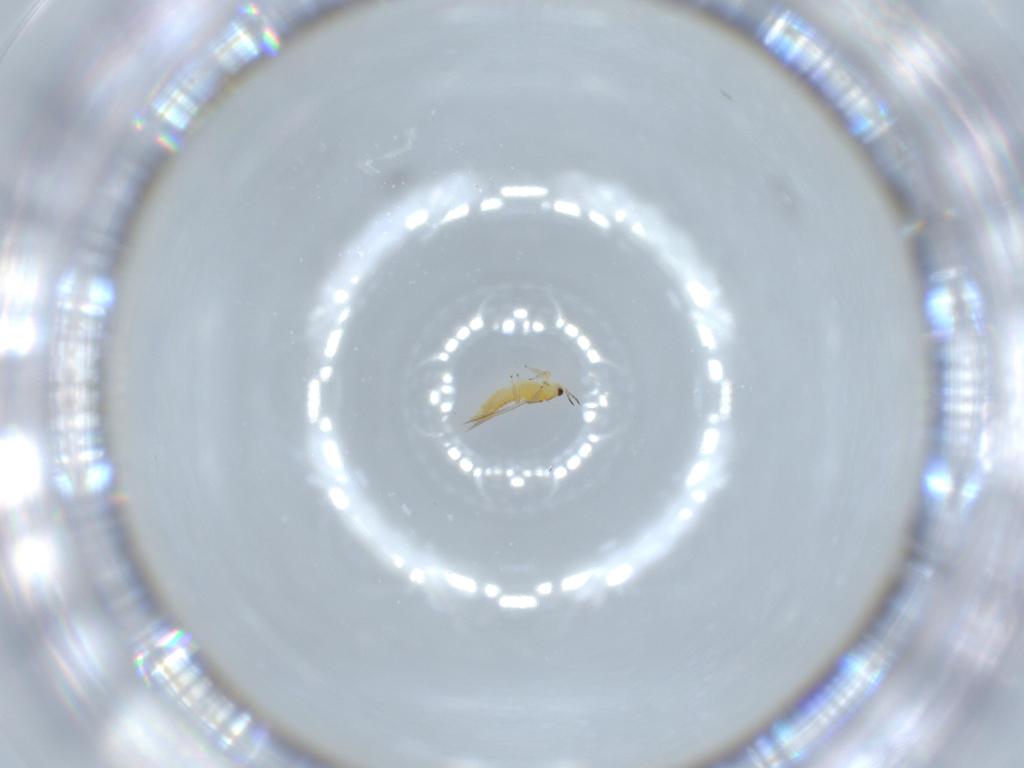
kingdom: Animalia
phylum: Arthropoda
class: Insecta
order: Thysanoptera
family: Thripidae
